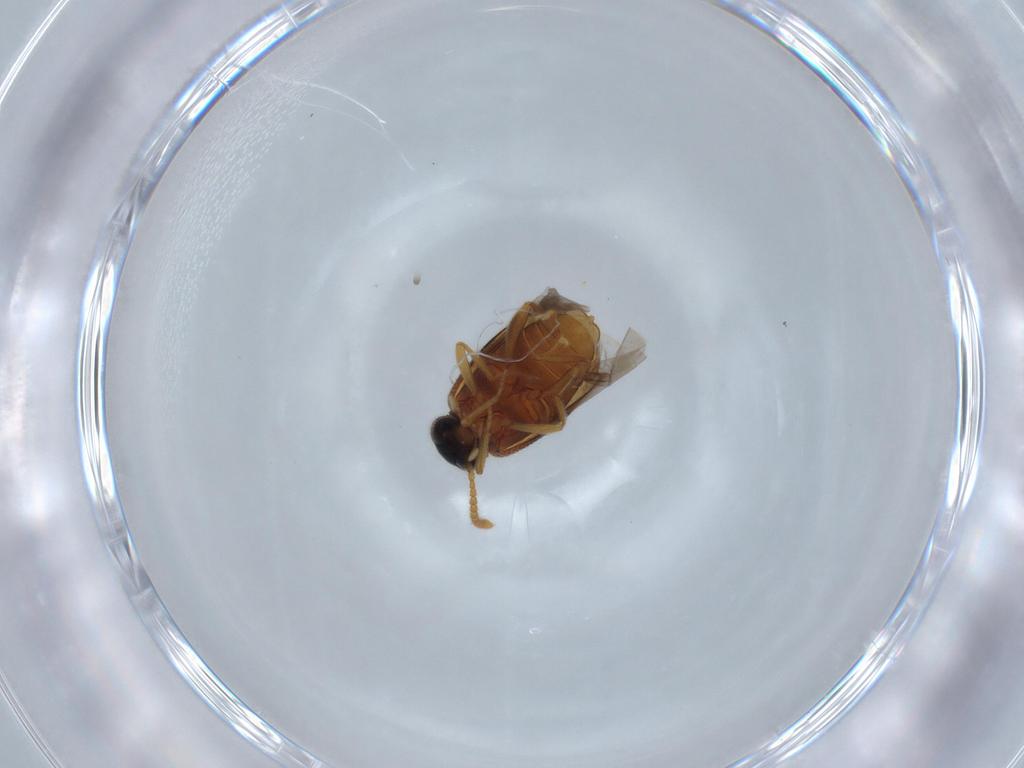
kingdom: Animalia
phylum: Arthropoda
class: Insecta
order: Coleoptera
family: Aderidae
